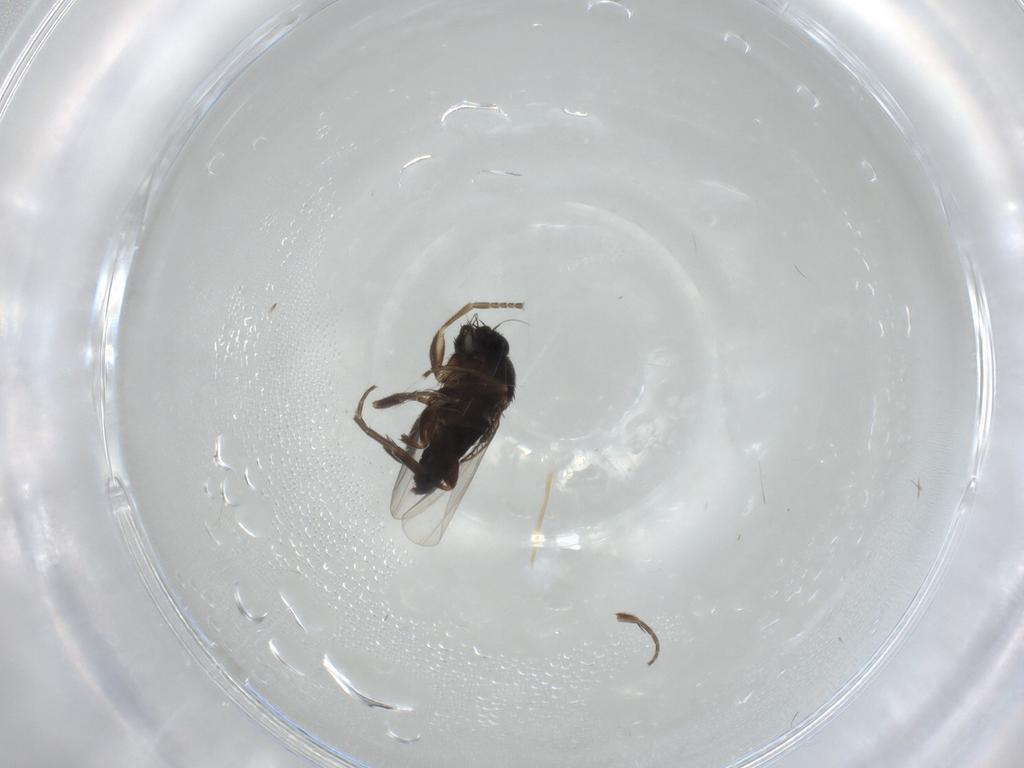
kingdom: Animalia
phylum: Arthropoda
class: Insecta
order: Diptera
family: Phoridae
